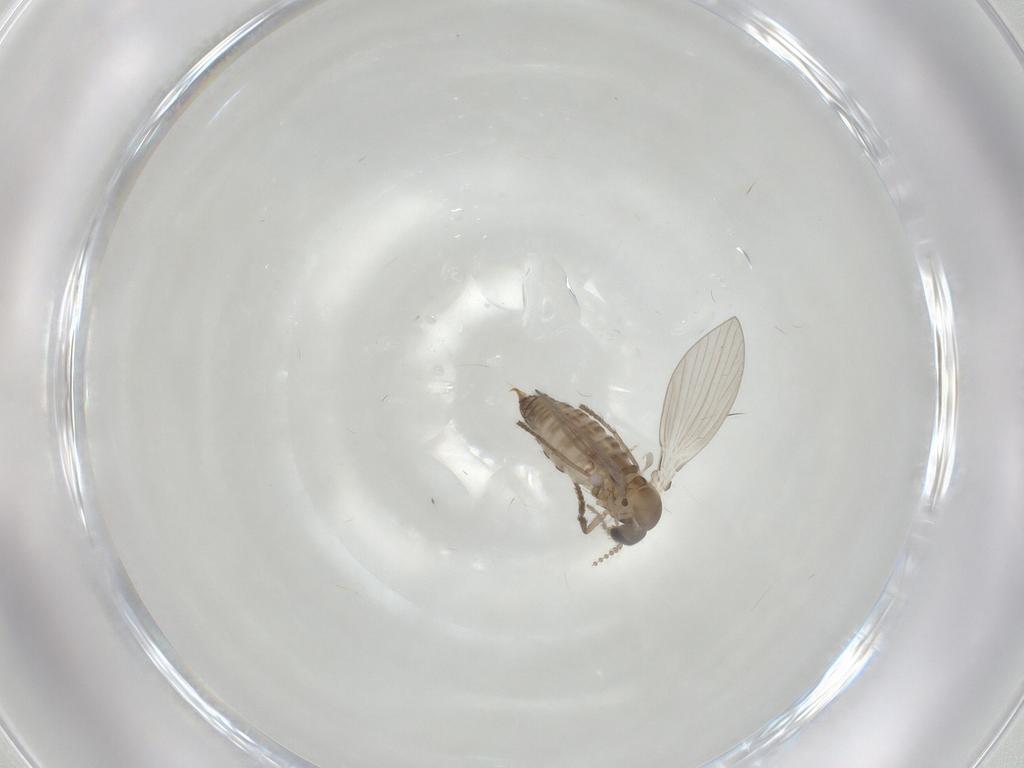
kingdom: Animalia
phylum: Arthropoda
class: Insecta
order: Diptera
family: Psychodidae
